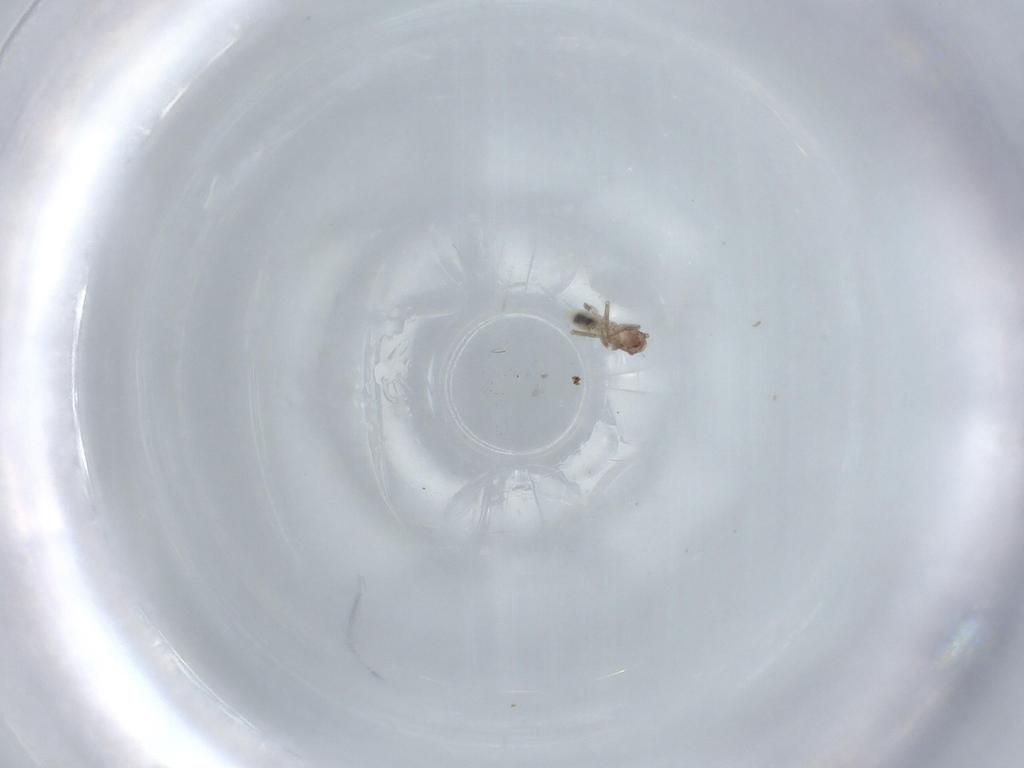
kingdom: Animalia
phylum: Arthropoda
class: Insecta
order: Psocodea
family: Lepidopsocidae
